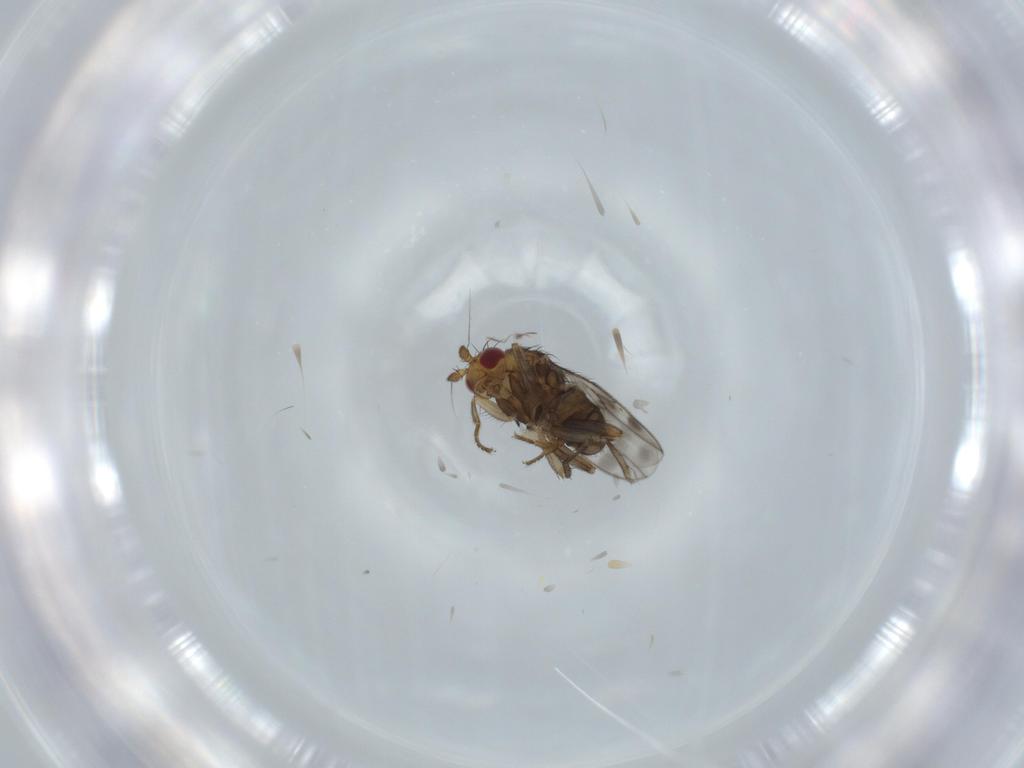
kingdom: Animalia
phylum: Arthropoda
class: Insecta
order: Diptera
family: Sphaeroceridae
